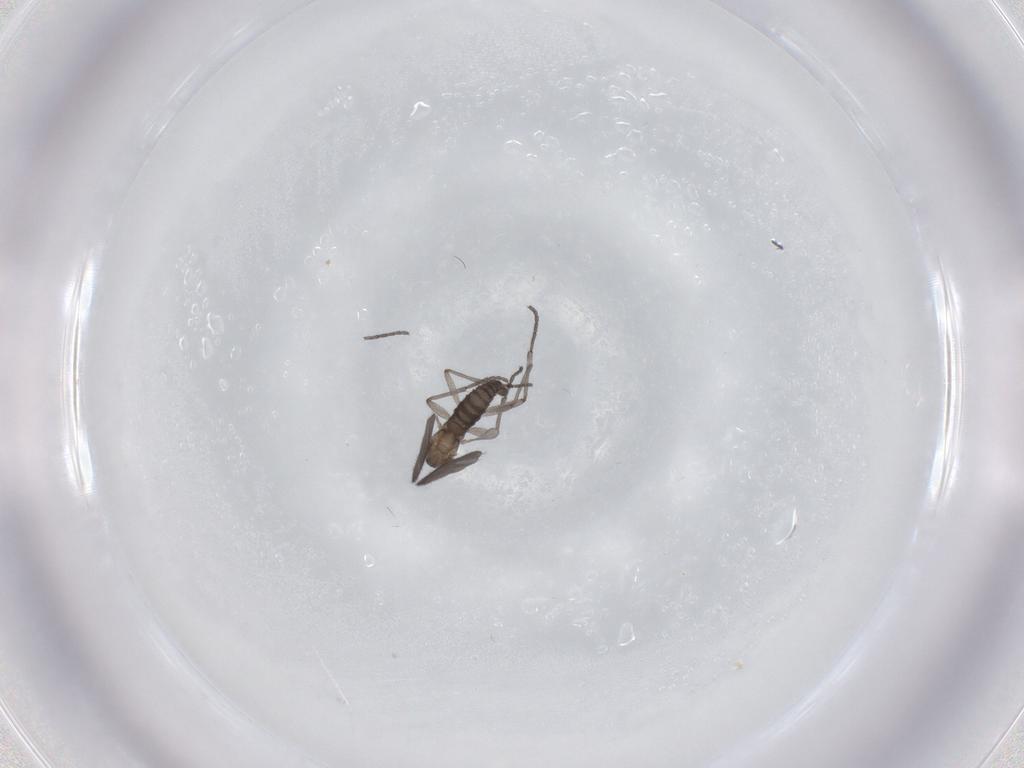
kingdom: Animalia
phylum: Arthropoda
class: Insecta
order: Diptera
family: Sciaridae
